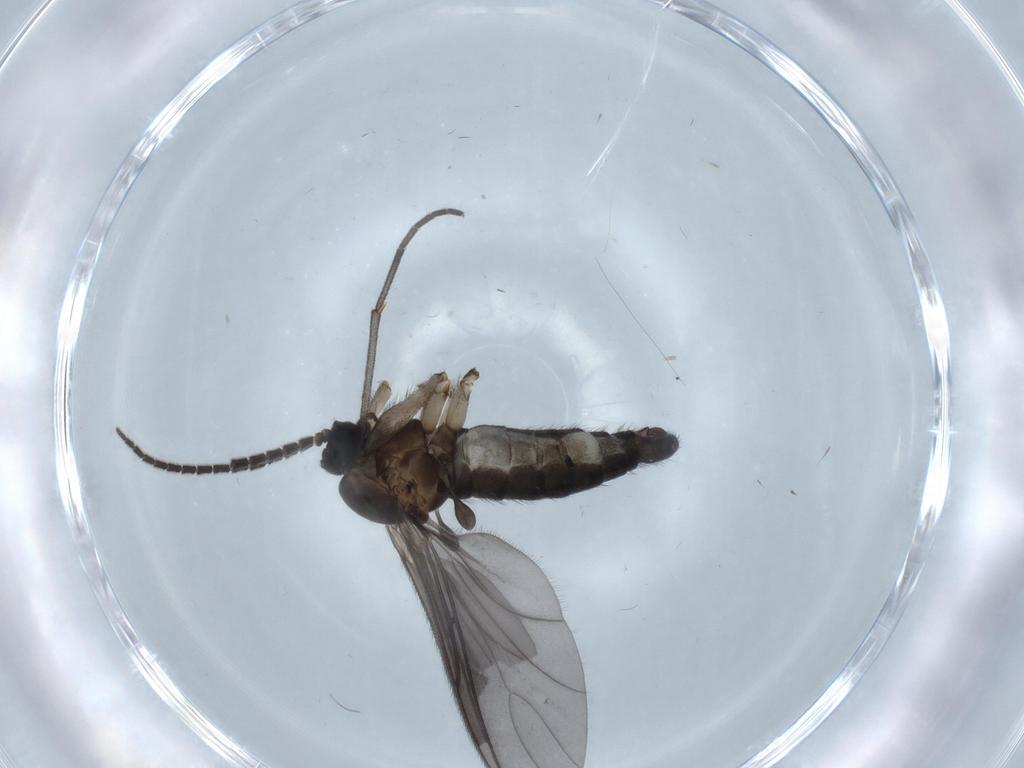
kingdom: Animalia
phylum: Arthropoda
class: Insecta
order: Diptera
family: Sciaridae
